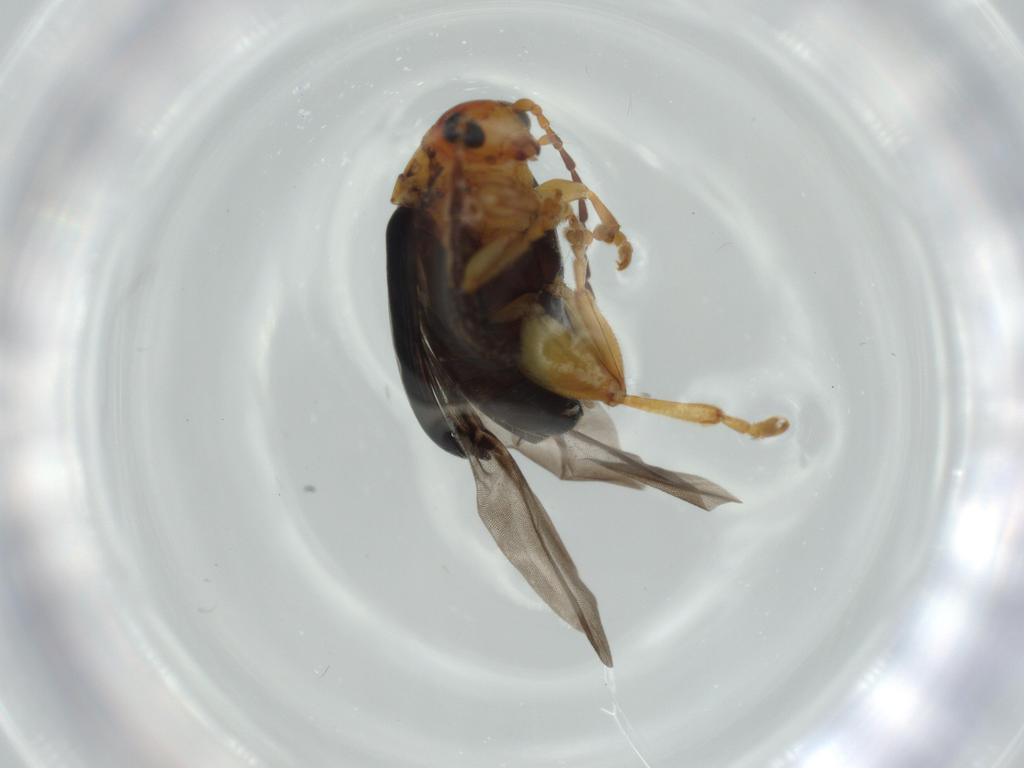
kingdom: Animalia
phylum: Arthropoda
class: Insecta
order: Coleoptera
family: Chrysomelidae
